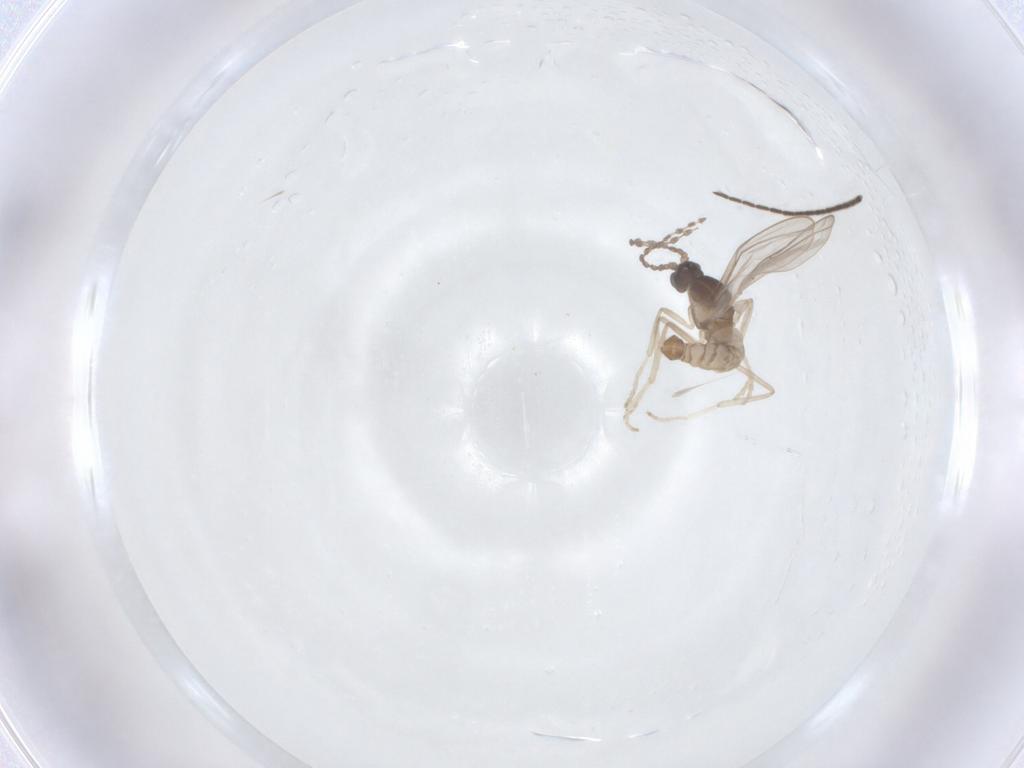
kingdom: Animalia
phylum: Arthropoda
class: Insecta
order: Diptera
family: Cecidomyiidae
